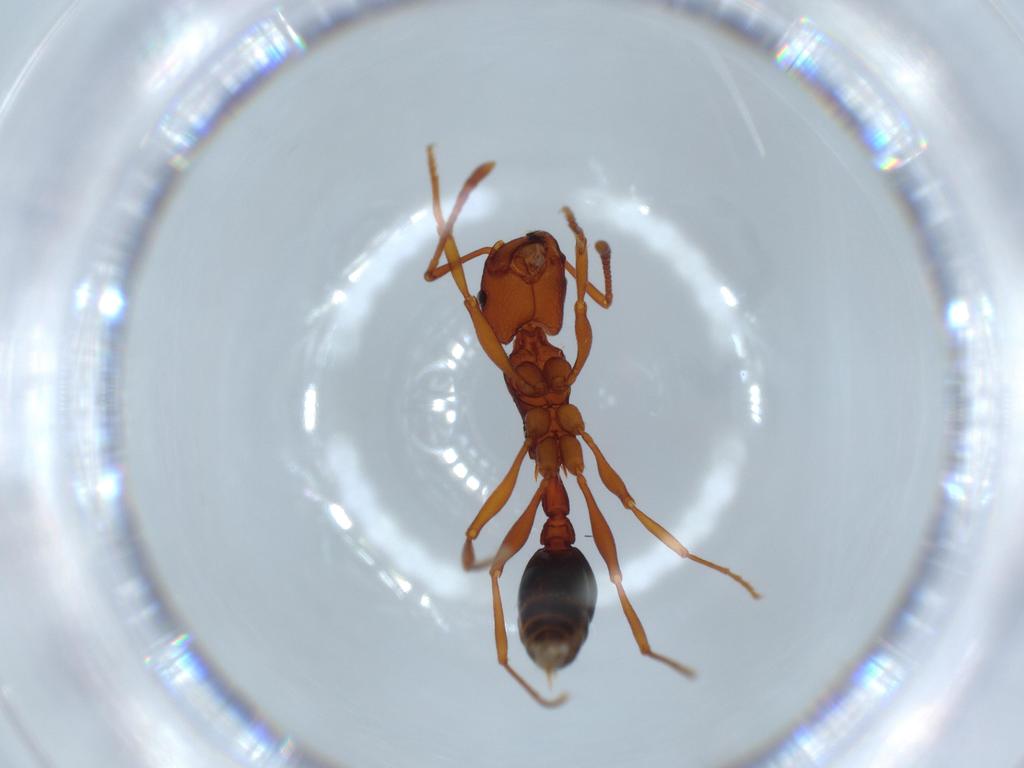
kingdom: Animalia
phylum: Arthropoda
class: Insecta
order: Hymenoptera
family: Formicidae
